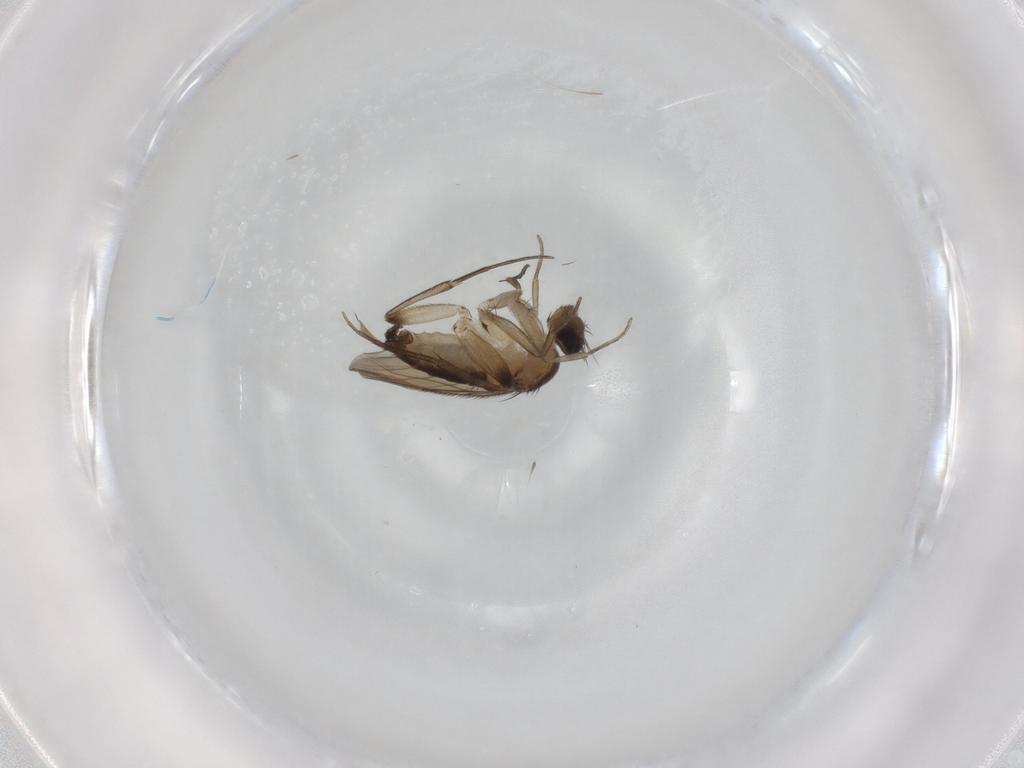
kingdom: Animalia
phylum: Arthropoda
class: Insecta
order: Diptera
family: Phoridae
